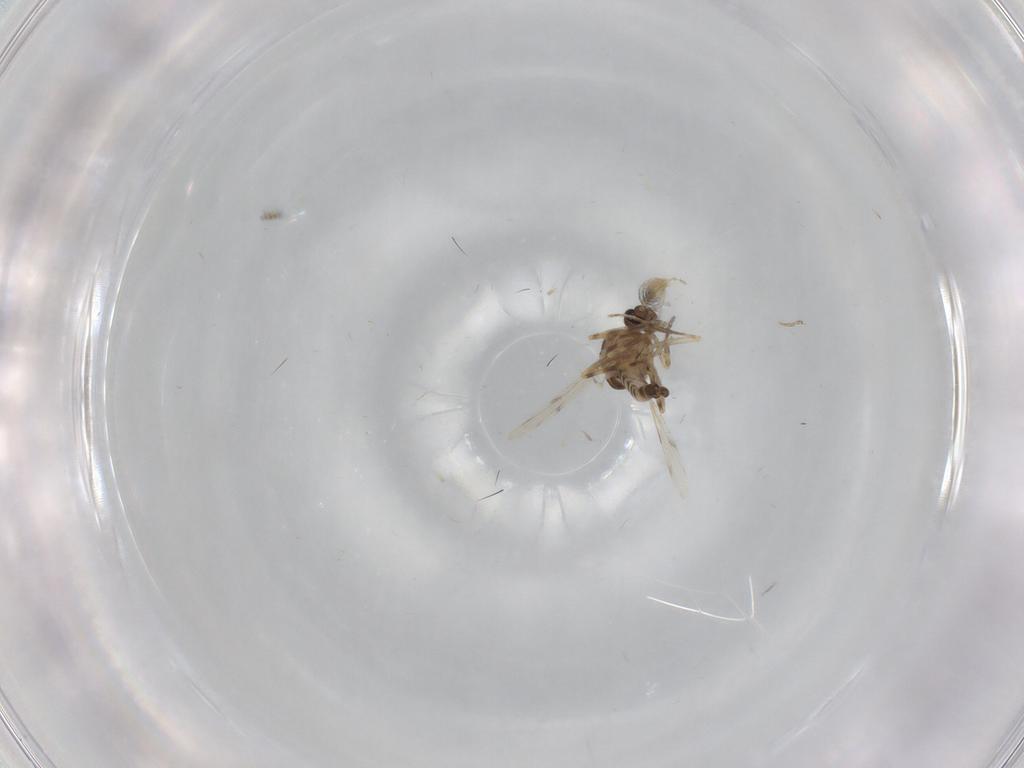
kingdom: Animalia
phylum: Arthropoda
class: Insecta
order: Diptera
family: Ceratopogonidae
